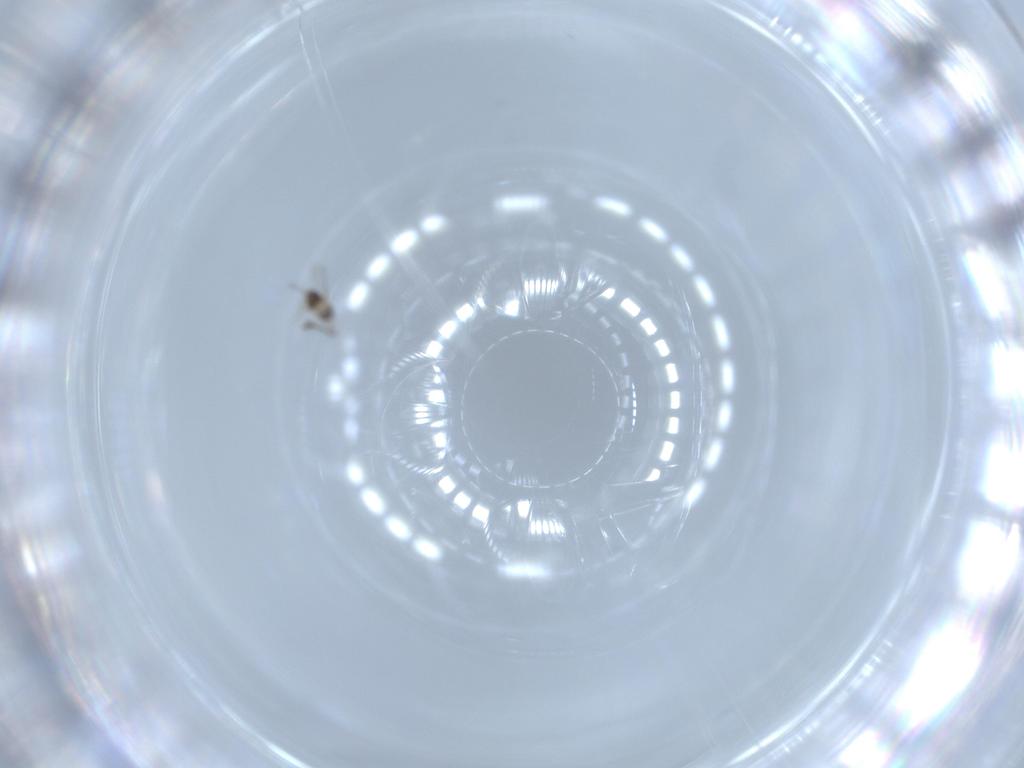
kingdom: Animalia
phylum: Arthropoda
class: Insecta
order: Hymenoptera
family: Mymaridae
